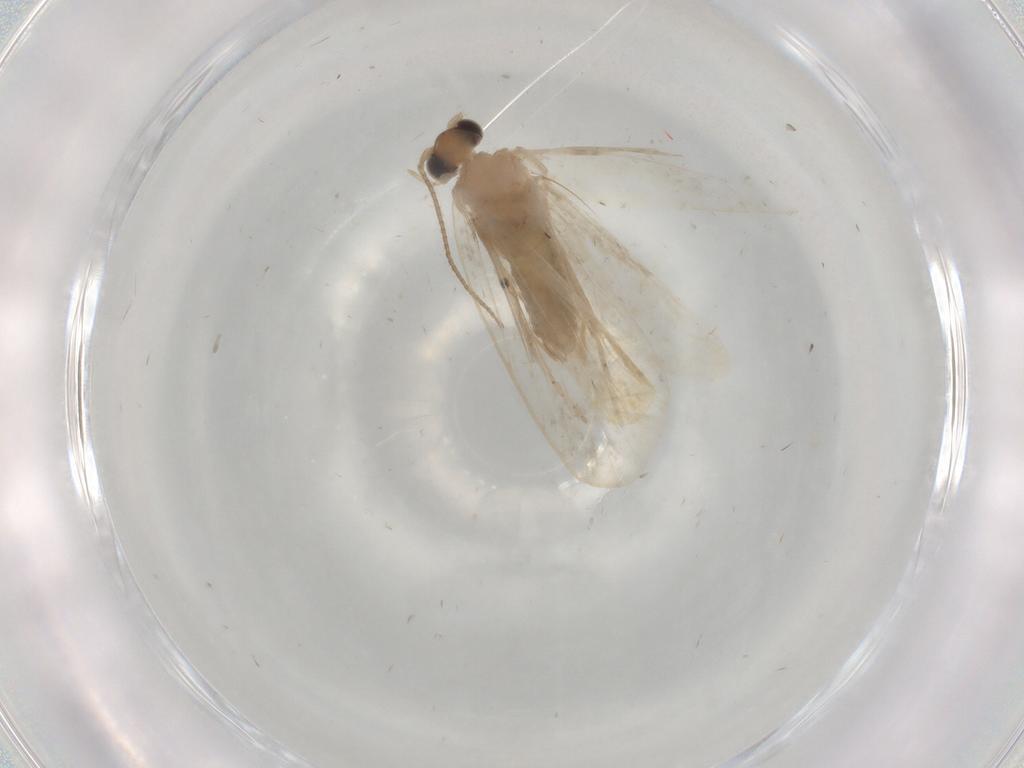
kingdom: Animalia
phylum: Arthropoda
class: Insecta
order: Lepidoptera
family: Psychidae
